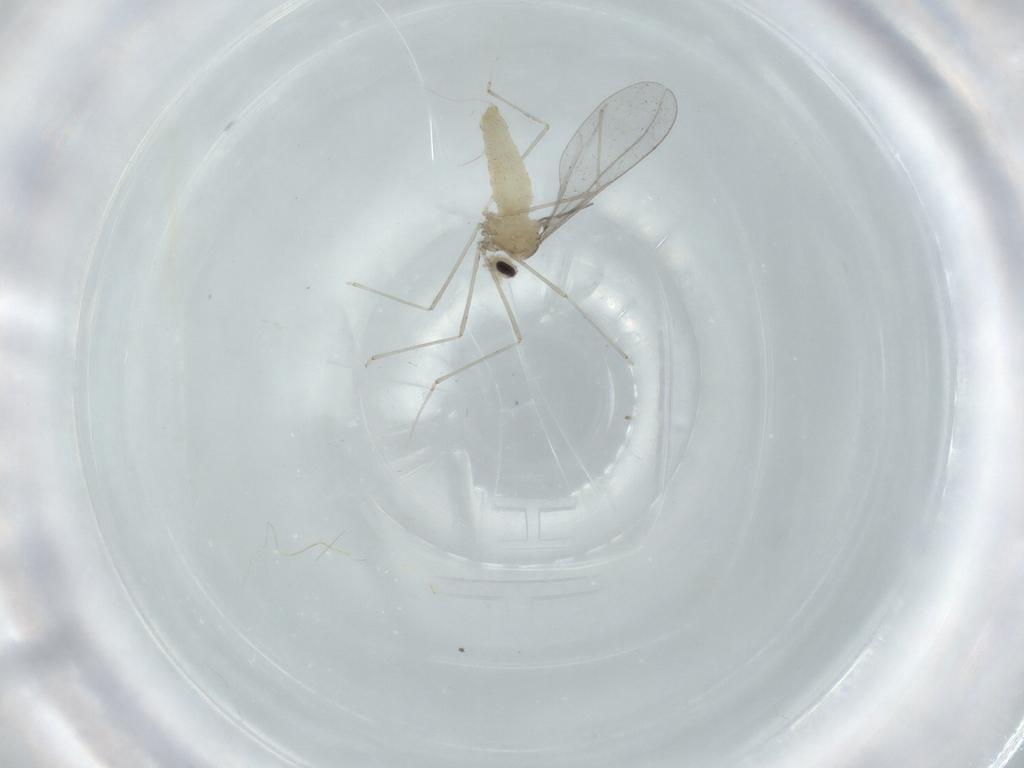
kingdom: Animalia
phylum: Arthropoda
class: Insecta
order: Diptera
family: Cecidomyiidae
